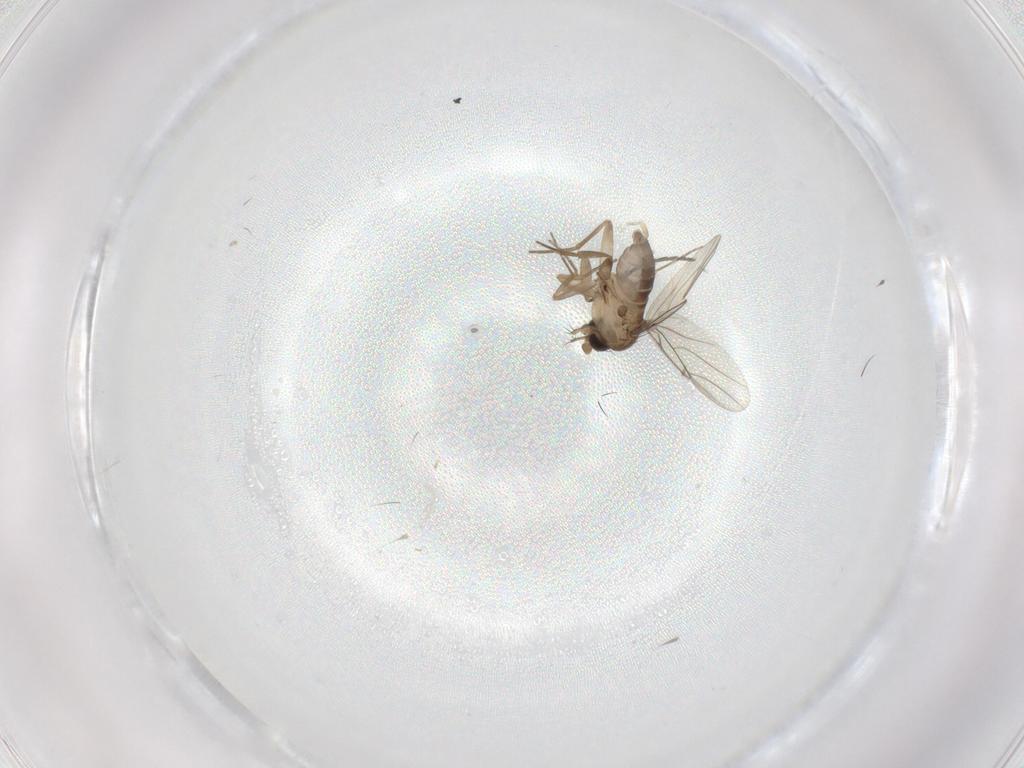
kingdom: Animalia
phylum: Arthropoda
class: Insecta
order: Diptera
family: Sciaridae
